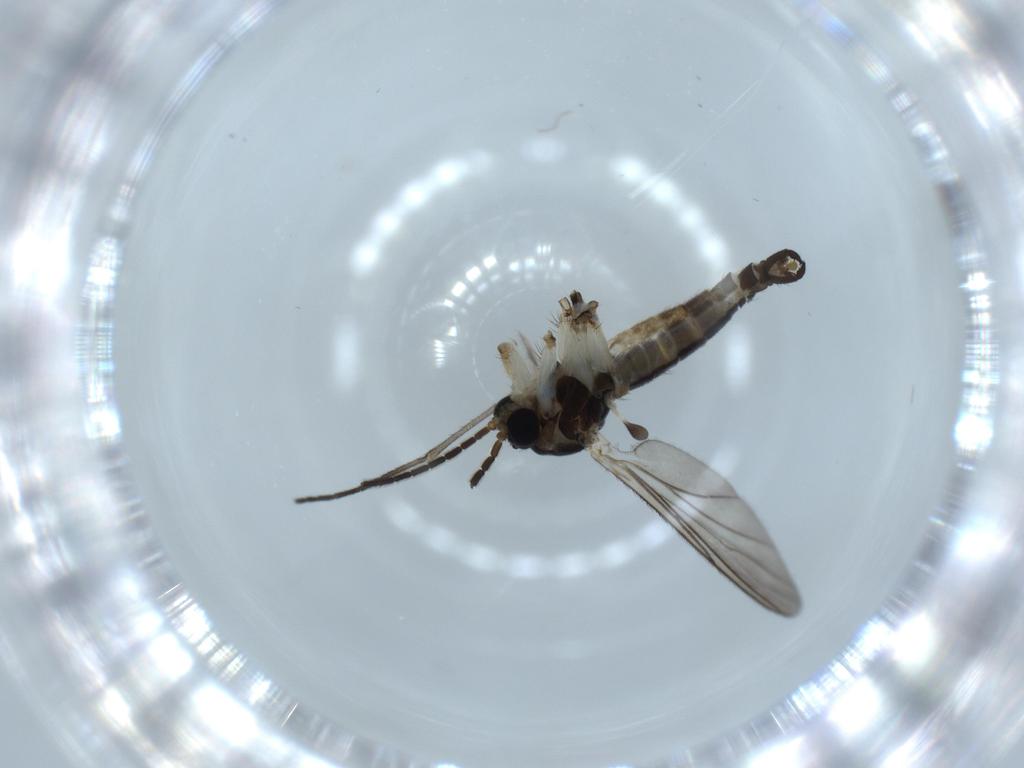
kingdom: Animalia
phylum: Arthropoda
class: Insecta
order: Diptera
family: Sciaridae
